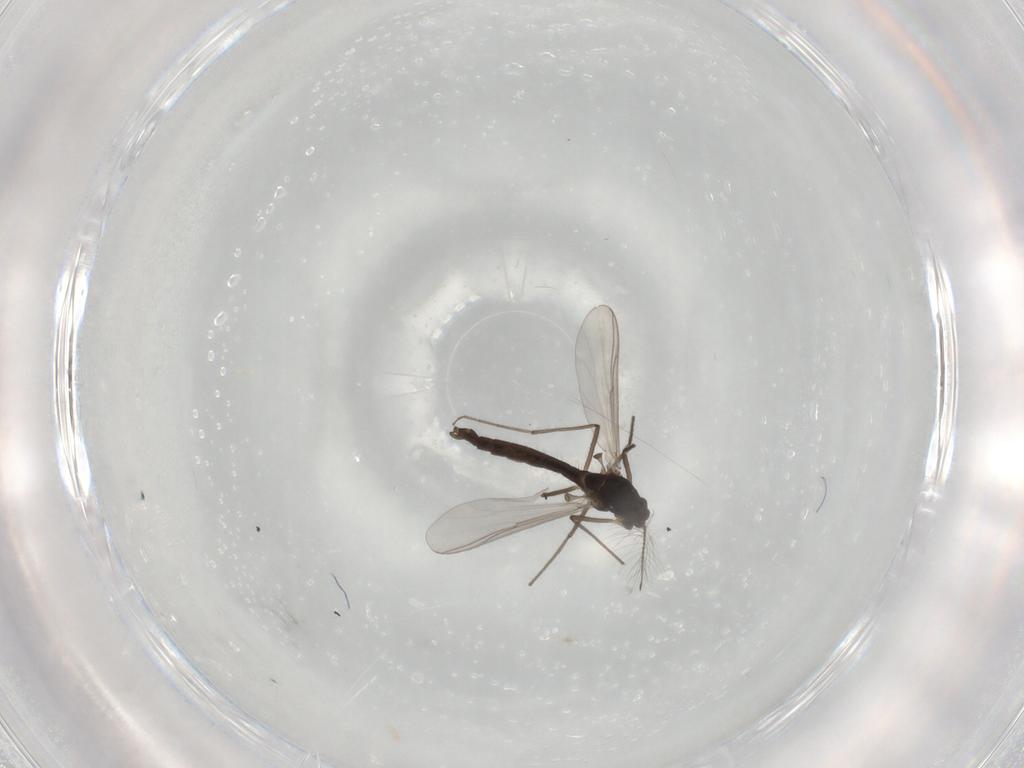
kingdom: Animalia
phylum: Arthropoda
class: Insecta
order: Diptera
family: Chironomidae
